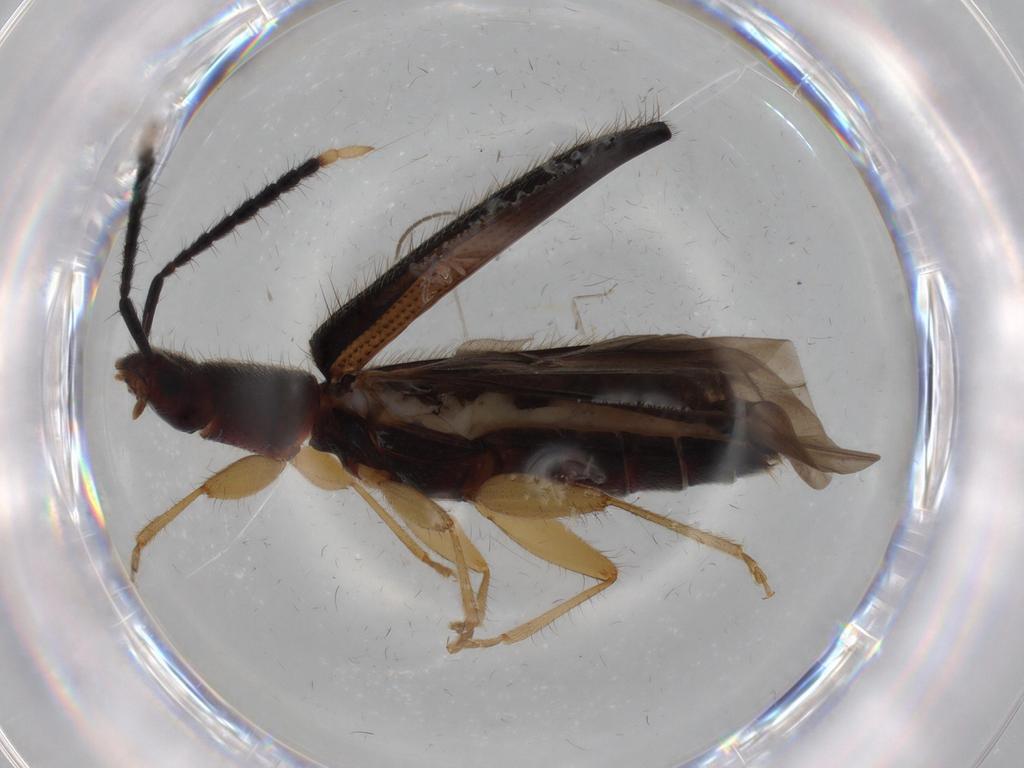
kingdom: Animalia
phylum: Arthropoda
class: Insecta
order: Coleoptera
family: Silvanidae
